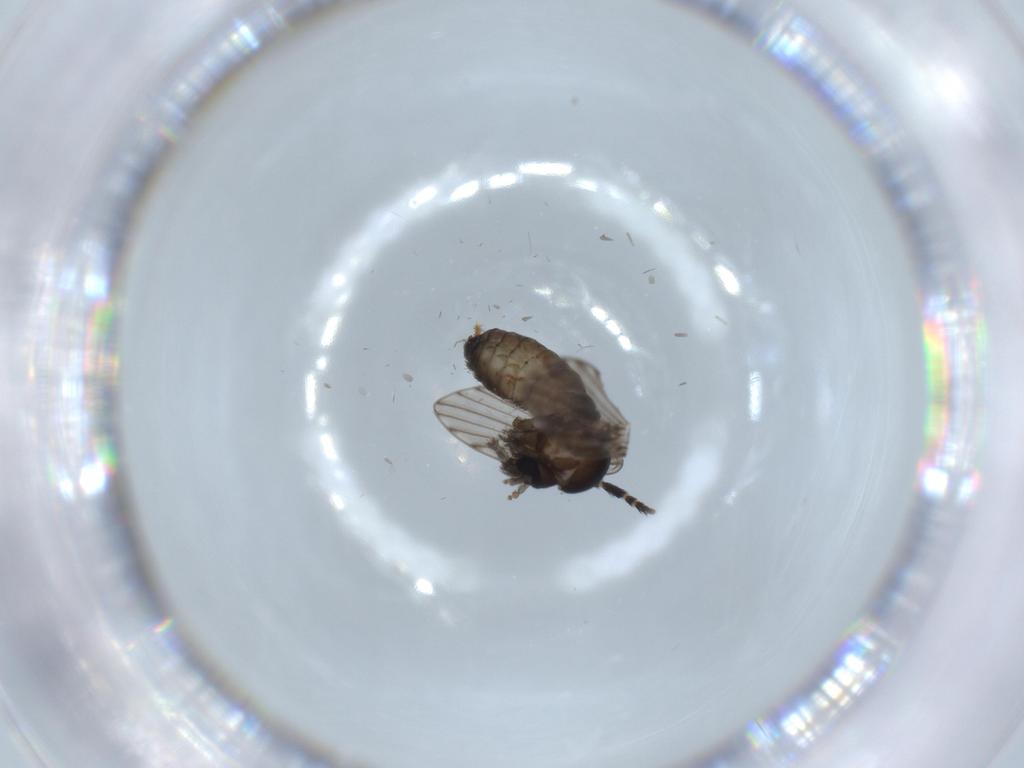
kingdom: Animalia
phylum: Arthropoda
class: Insecta
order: Diptera
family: Psychodidae
